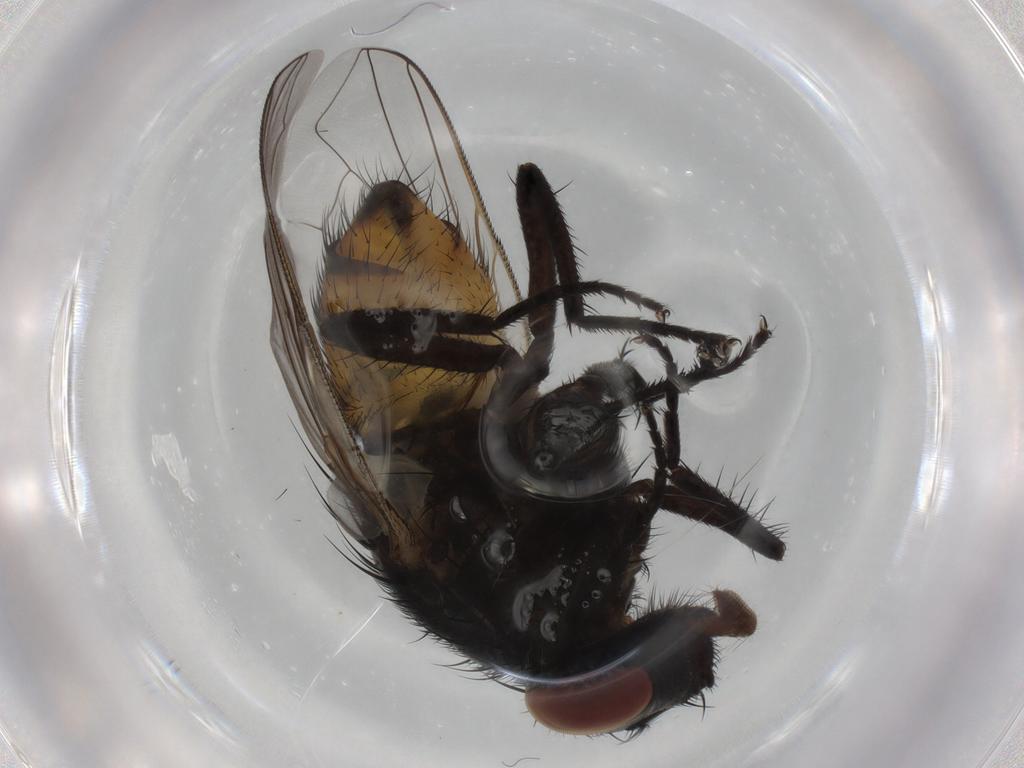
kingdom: Animalia
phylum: Arthropoda
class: Insecta
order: Diptera
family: Muscidae
